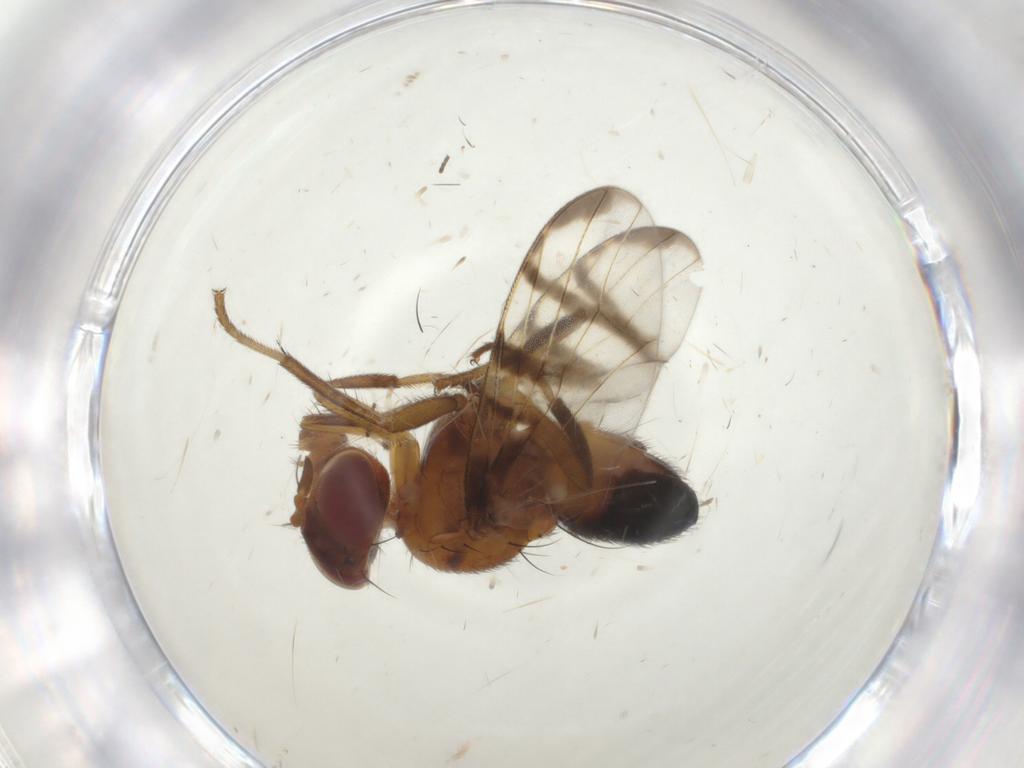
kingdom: Animalia
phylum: Arthropoda
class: Insecta
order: Diptera
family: Platystomatidae
